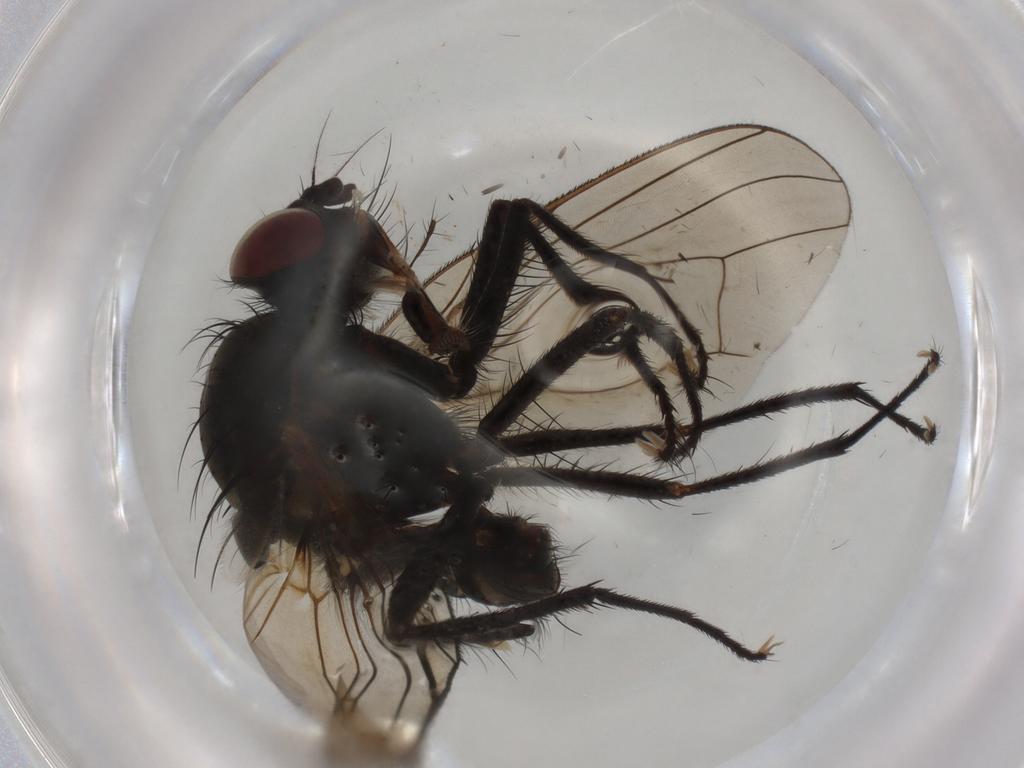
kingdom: Animalia
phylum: Arthropoda
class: Insecta
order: Diptera
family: Anthomyiidae
